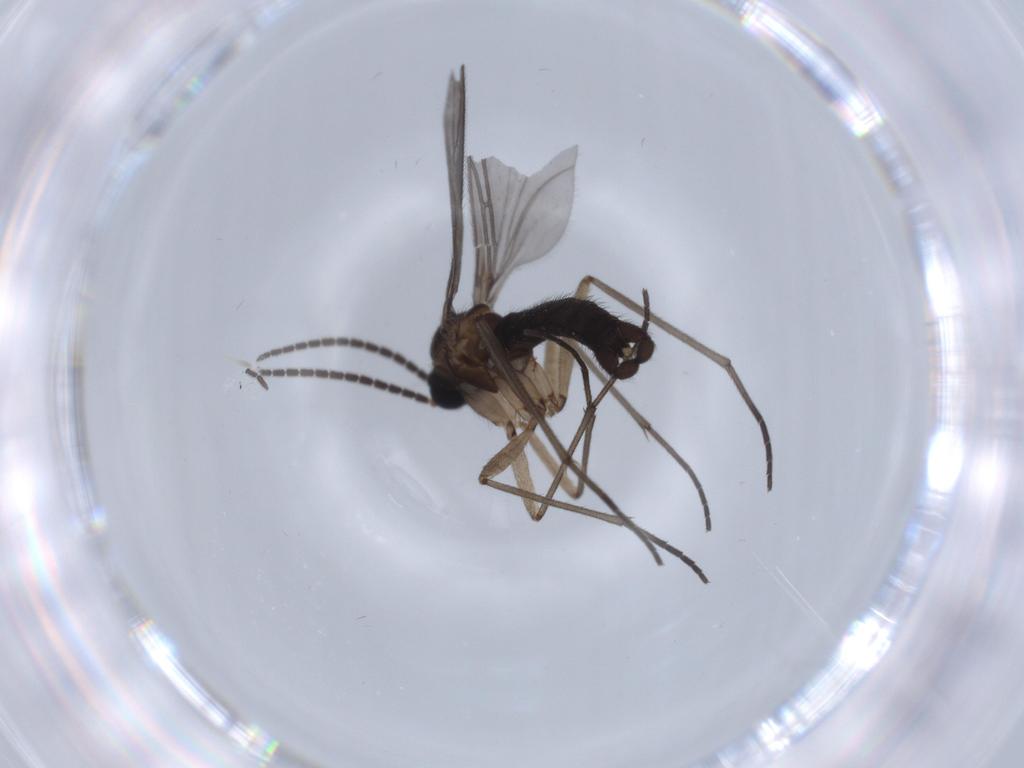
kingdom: Animalia
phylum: Arthropoda
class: Insecta
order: Diptera
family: Sciaridae
